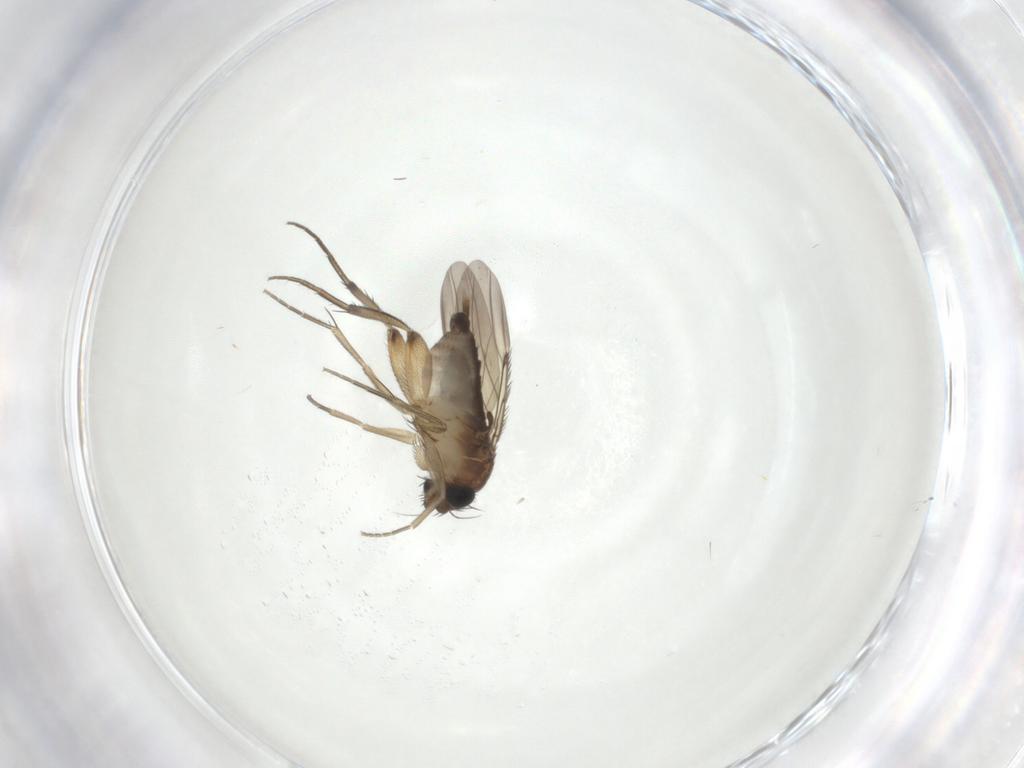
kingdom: Animalia
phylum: Arthropoda
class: Insecta
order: Diptera
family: Phoridae
